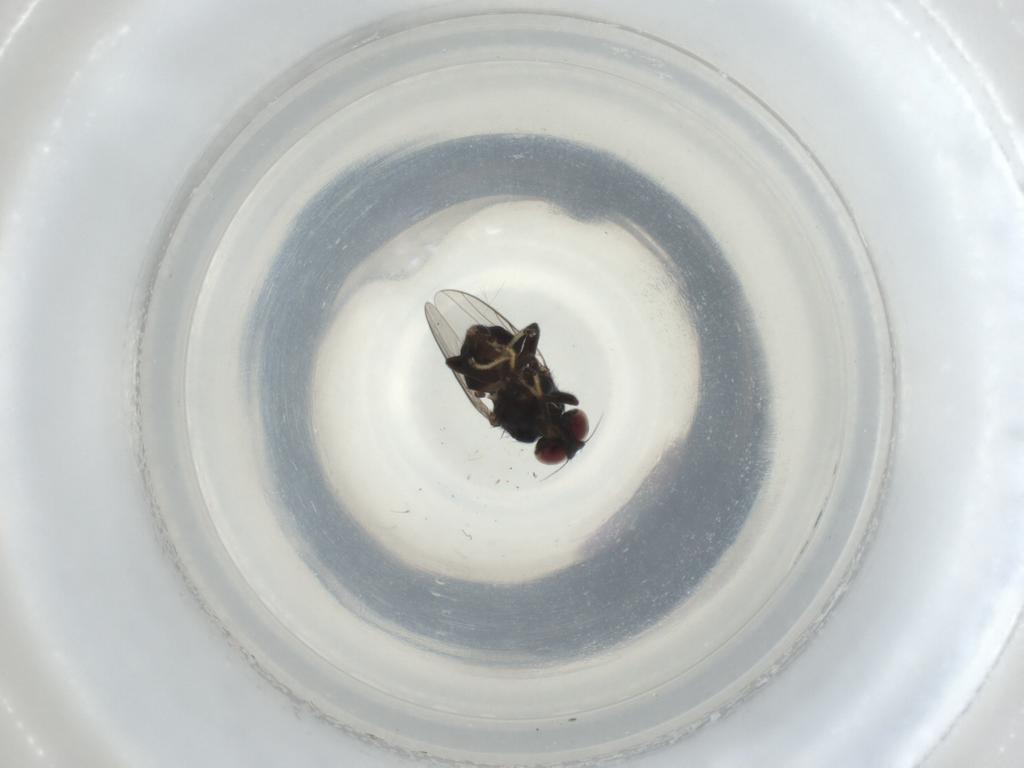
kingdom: Animalia
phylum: Arthropoda
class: Insecta
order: Diptera
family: Chloropidae
